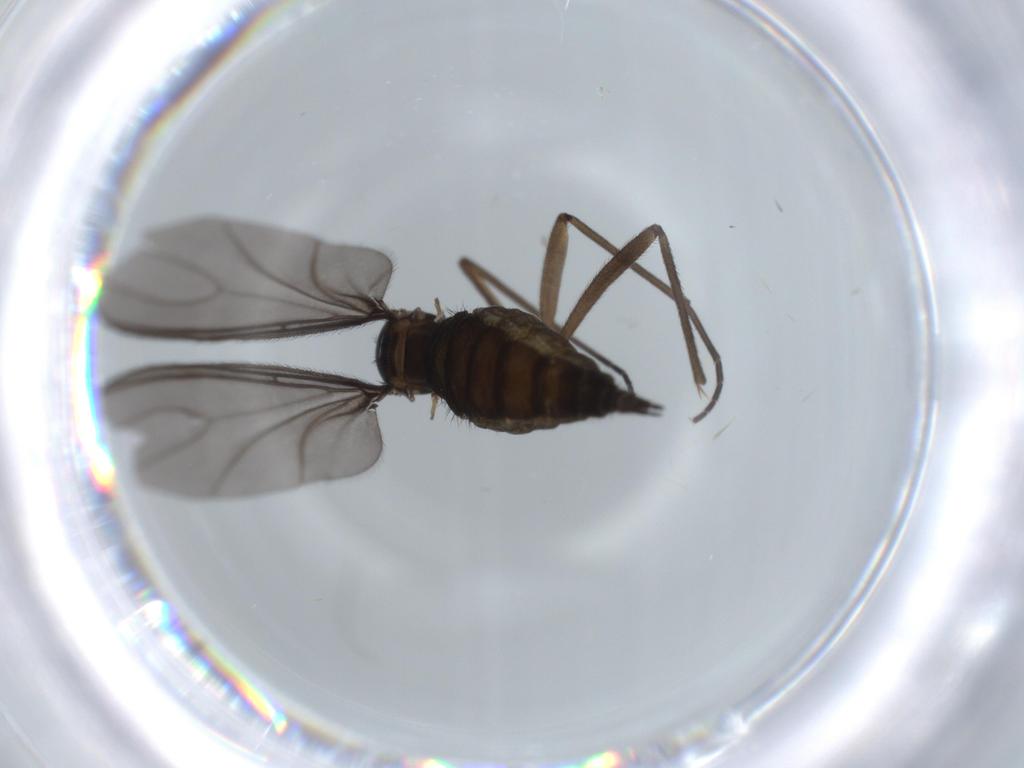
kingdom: Animalia
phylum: Arthropoda
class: Insecta
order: Diptera
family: Sciaridae
